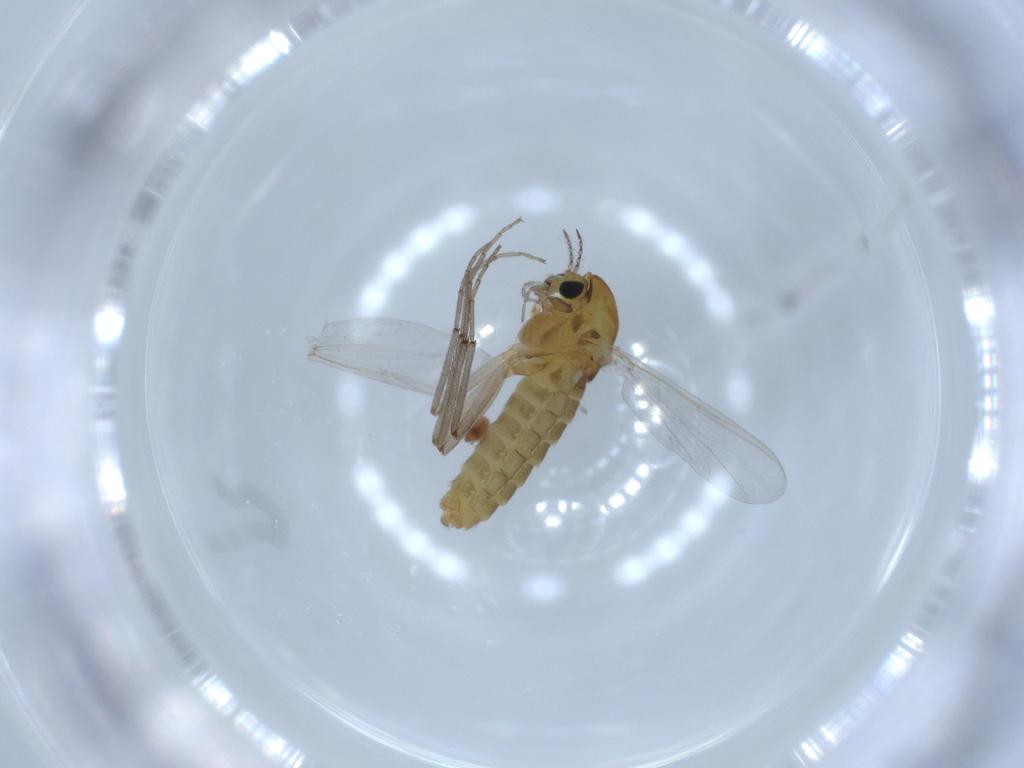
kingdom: Animalia
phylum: Arthropoda
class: Insecta
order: Diptera
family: Chironomidae
